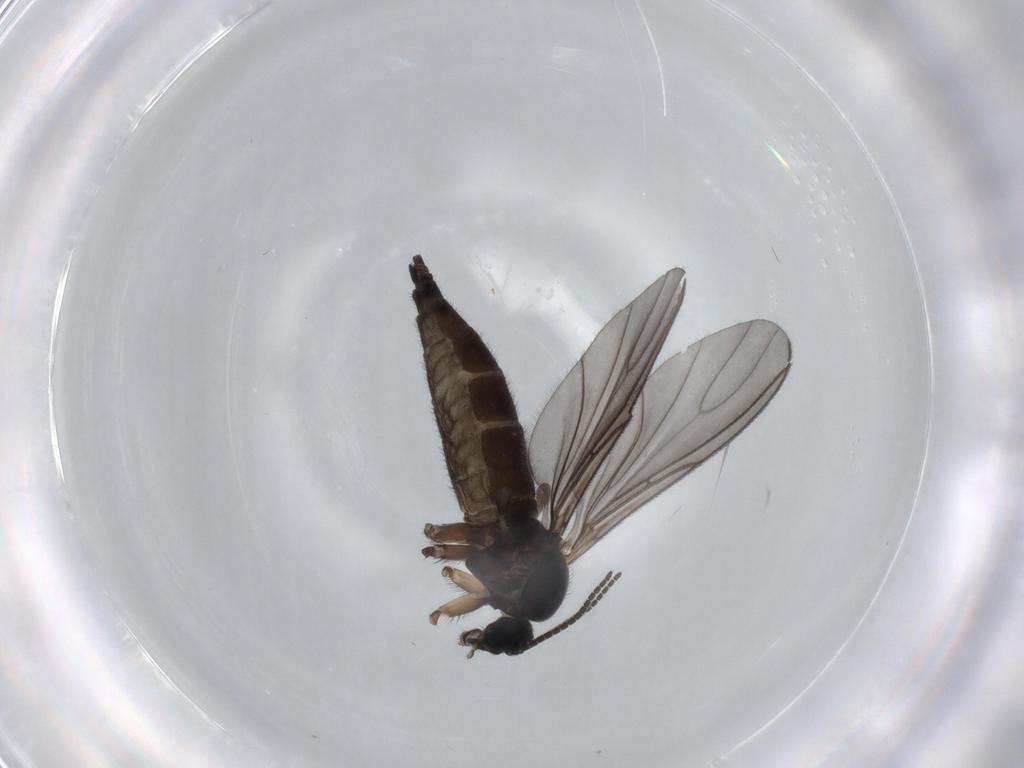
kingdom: Animalia
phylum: Arthropoda
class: Insecta
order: Diptera
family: Sciaridae
